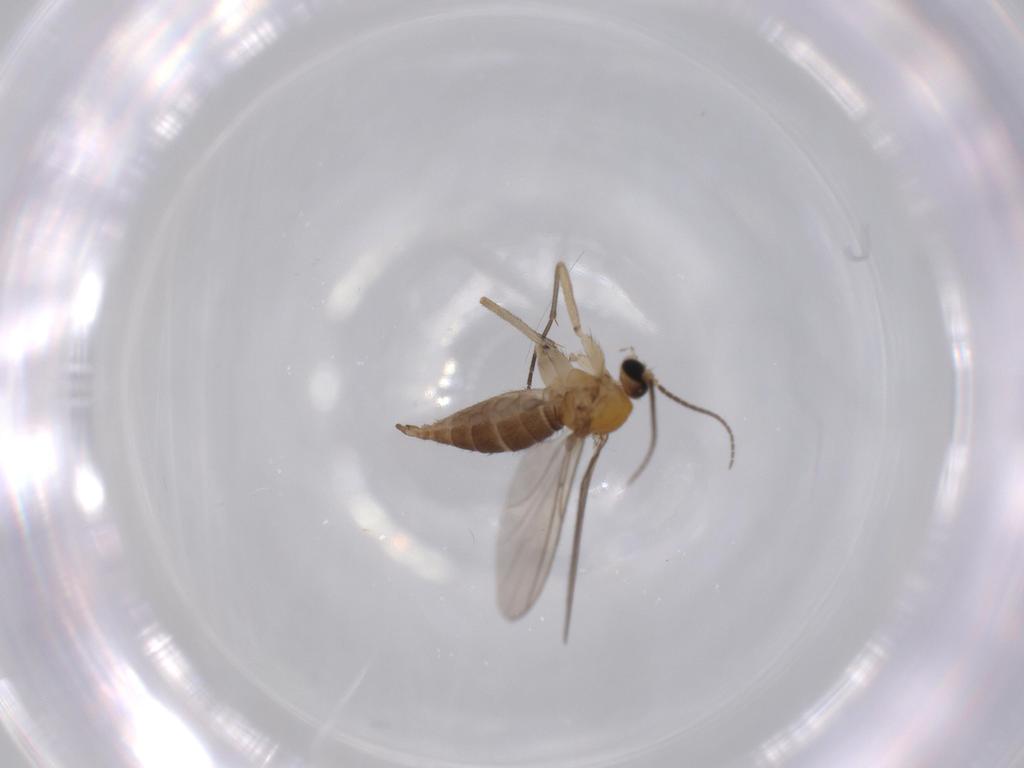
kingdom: Animalia
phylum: Arthropoda
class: Insecta
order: Diptera
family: Sciaridae
